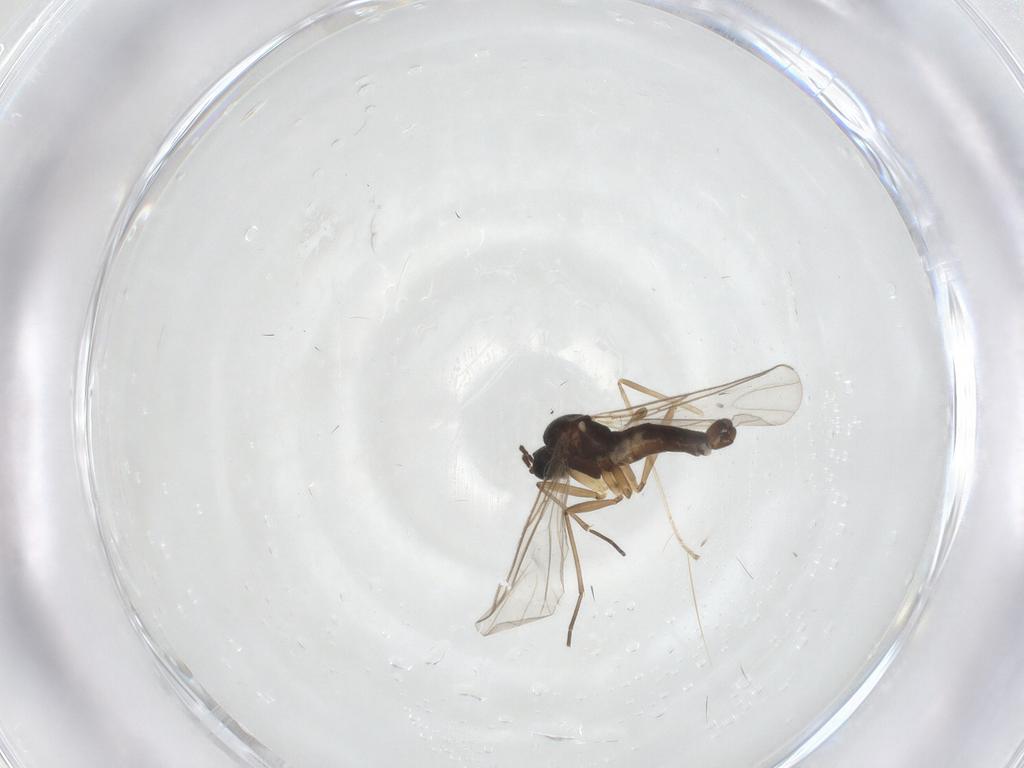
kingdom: Animalia
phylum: Arthropoda
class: Insecta
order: Diptera
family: Sciaridae
